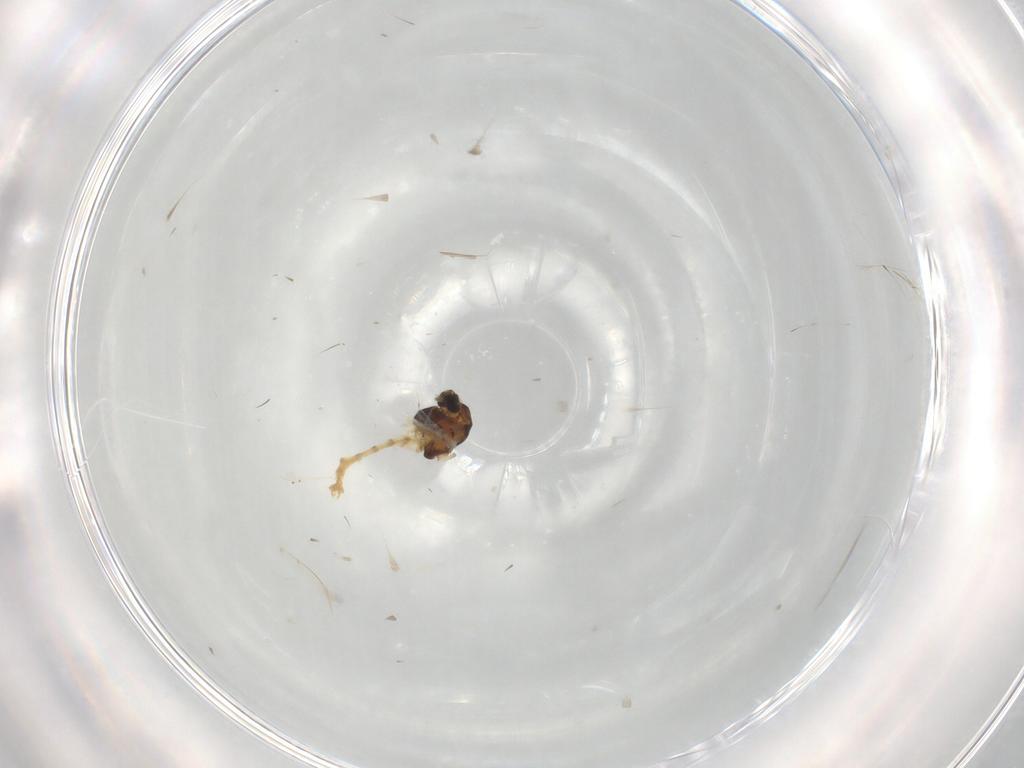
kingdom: Animalia
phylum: Arthropoda
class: Insecta
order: Diptera
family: Chironomidae
